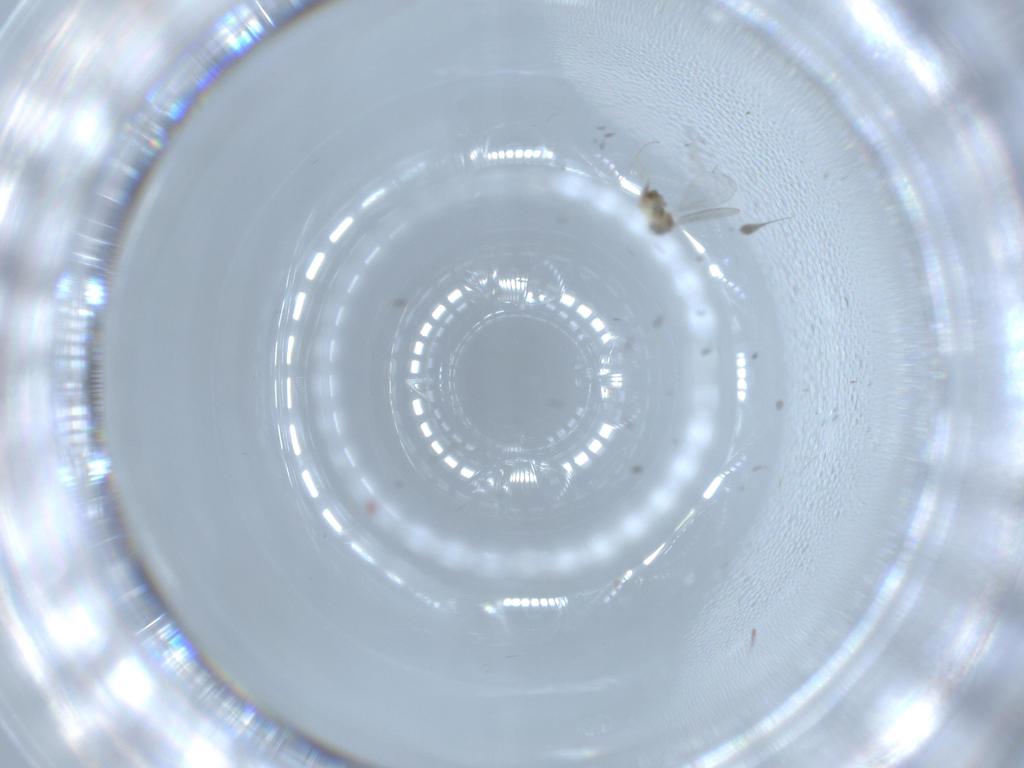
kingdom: Animalia
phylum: Arthropoda
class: Insecta
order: Diptera
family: Cecidomyiidae
